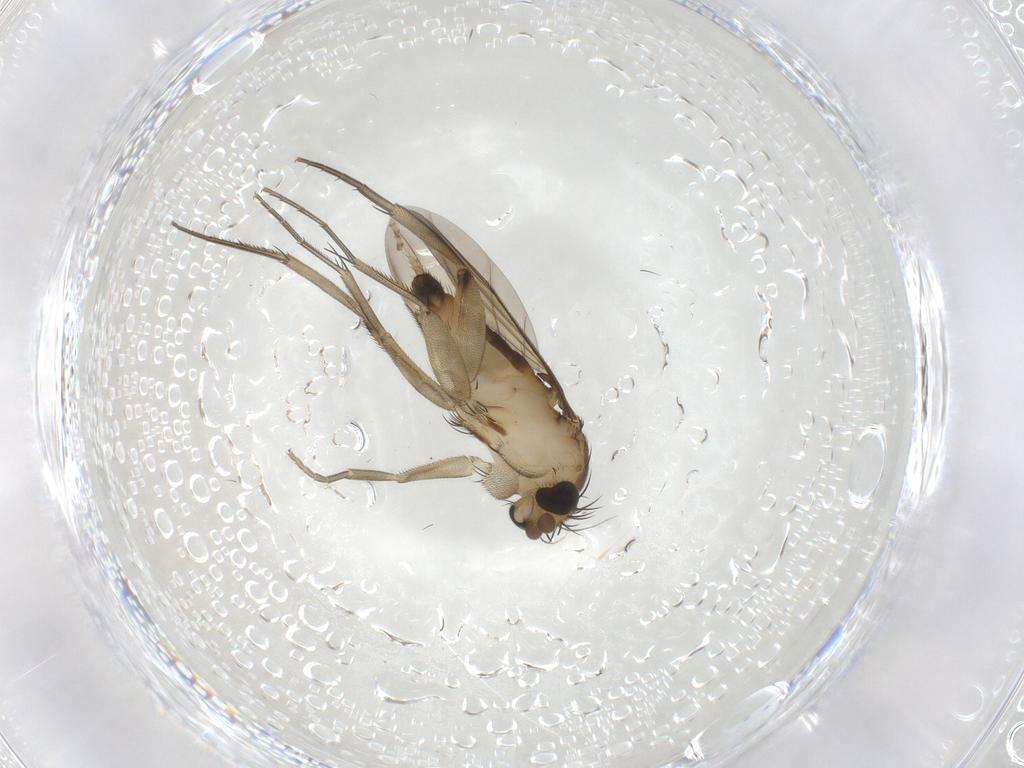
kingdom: Animalia
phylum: Arthropoda
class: Insecta
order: Diptera
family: Phoridae
